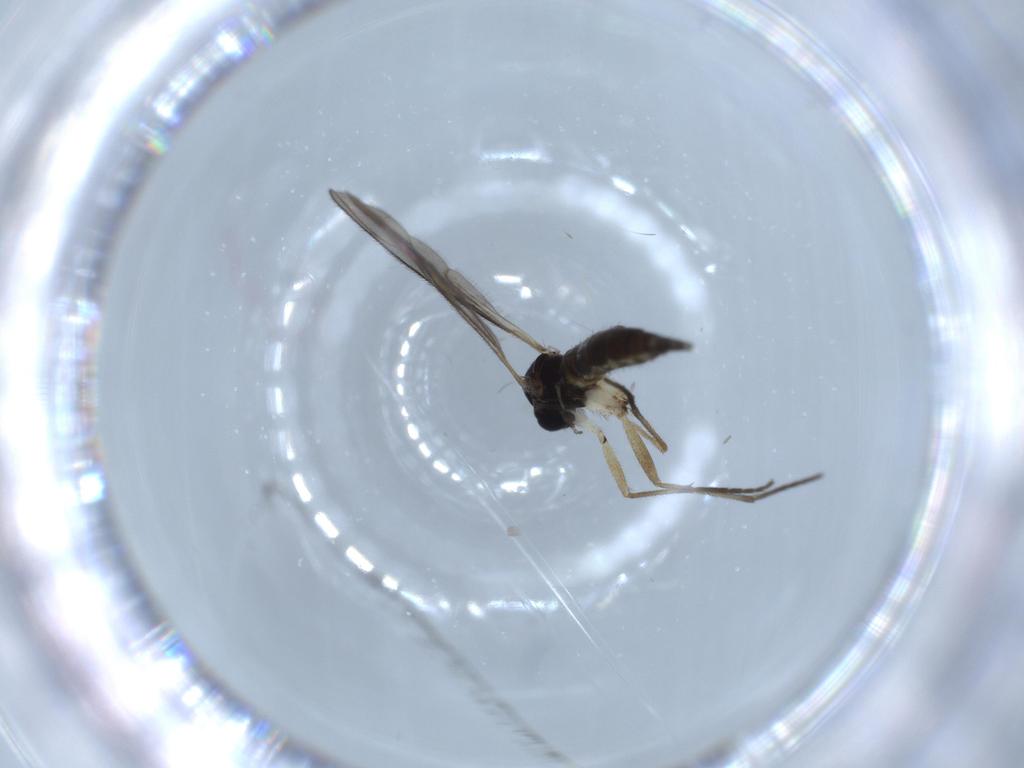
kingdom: Animalia
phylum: Arthropoda
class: Insecta
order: Diptera
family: Sciaridae
